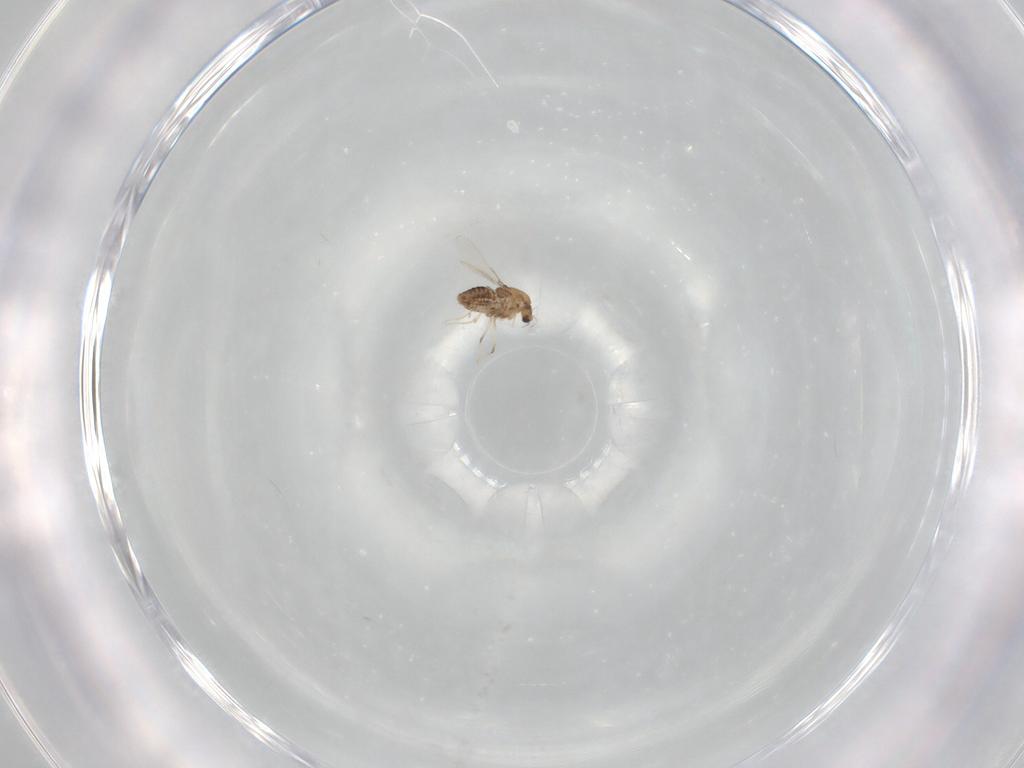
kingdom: Animalia
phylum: Arthropoda
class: Insecta
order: Diptera
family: Chironomidae
